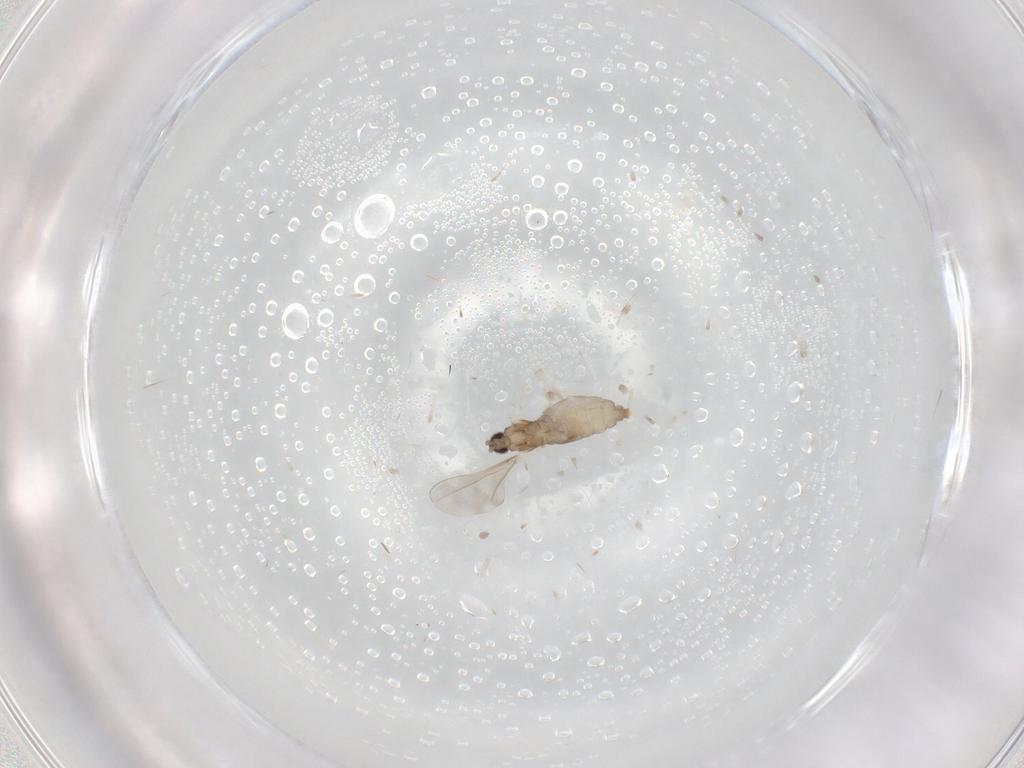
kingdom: Animalia
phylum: Arthropoda
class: Insecta
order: Diptera
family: Cecidomyiidae
